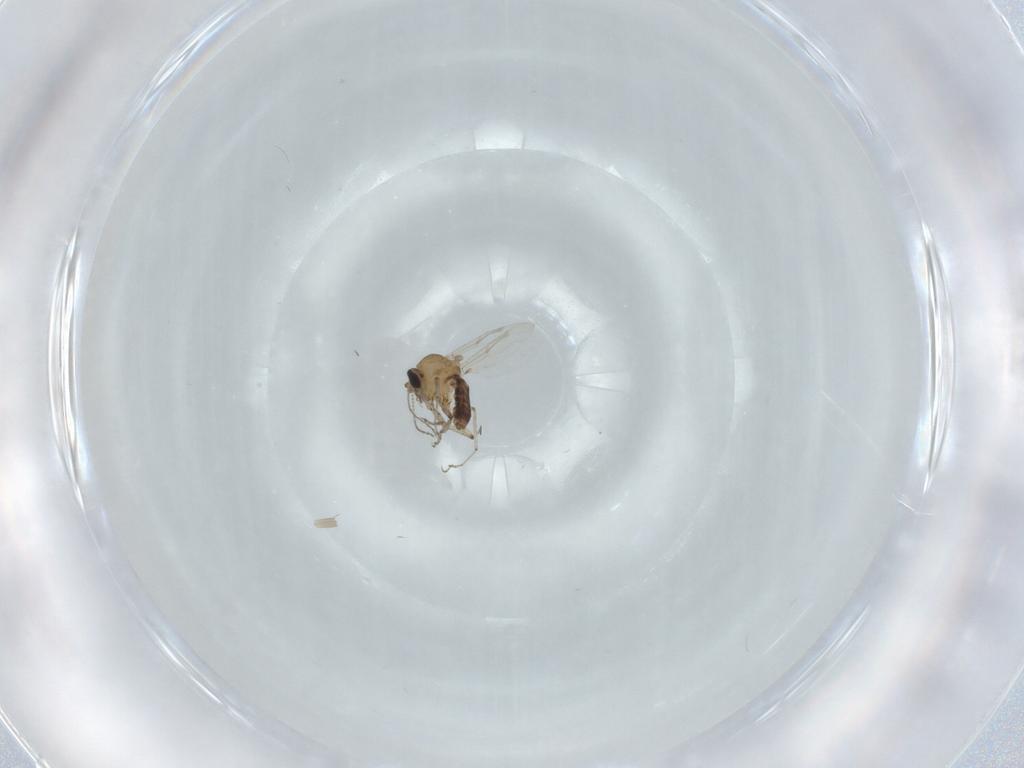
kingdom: Animalia
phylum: Arthropoda
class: Insecta
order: Diptera
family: Ceratopogonidae
